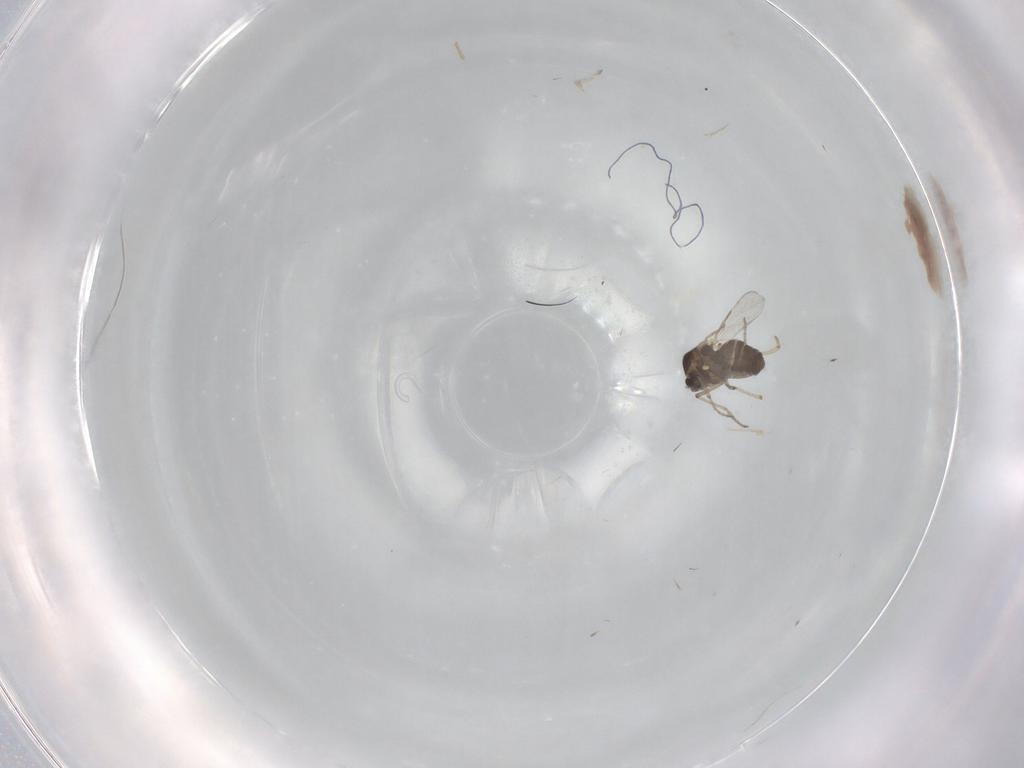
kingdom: Animalia
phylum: Arthropoda
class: Insecta
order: Diptera
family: Ceratopogonidae
